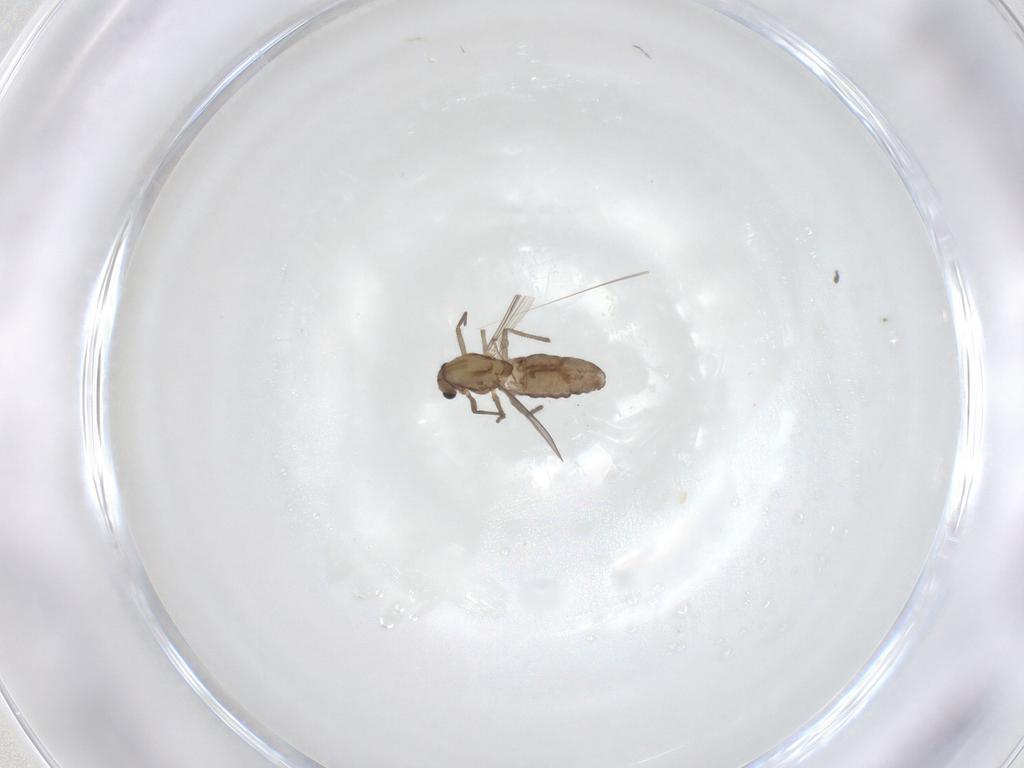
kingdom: Animalia
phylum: Arthropoda
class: Insecta
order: Diptera
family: Chironomidae
